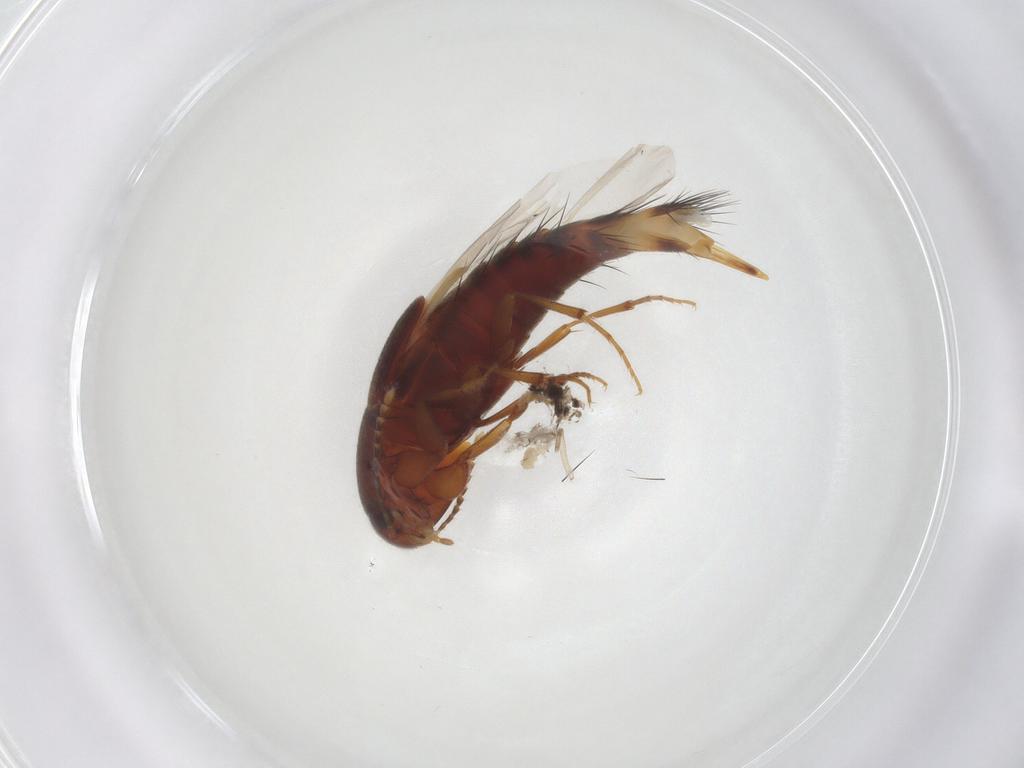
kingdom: Animalia
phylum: Arthropoda
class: Insecta
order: Coleoptera
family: Staphylinidae
